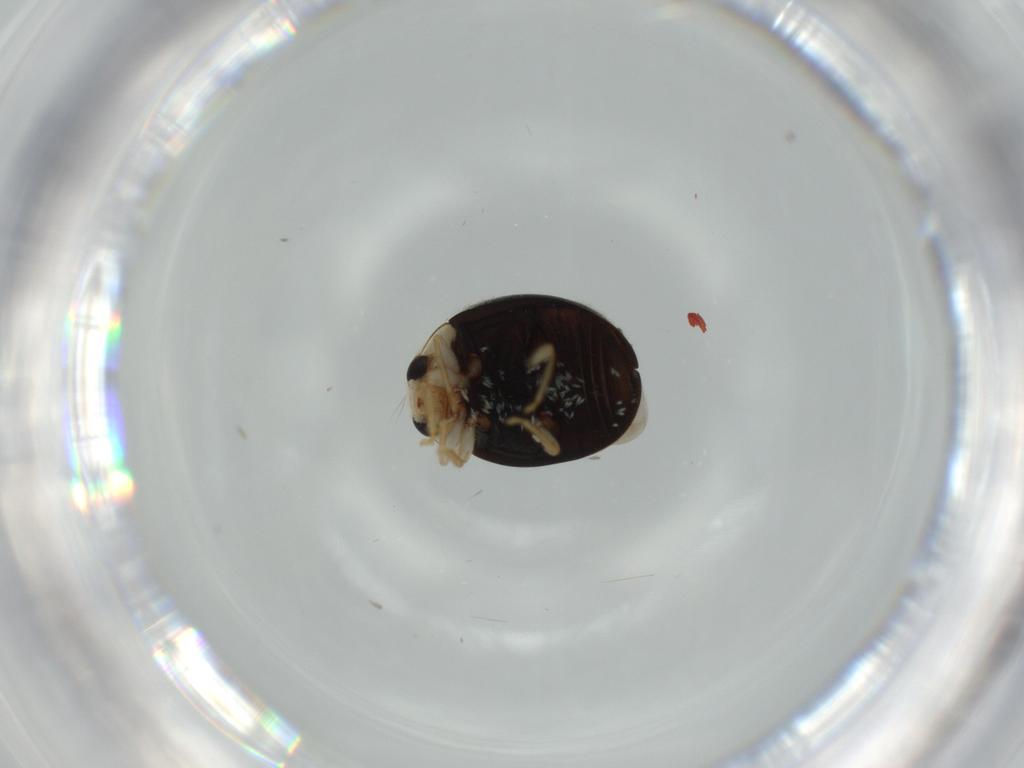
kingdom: Animalia
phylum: Arthropoda
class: Insecta
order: Coleoptera
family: Coccinellidae
